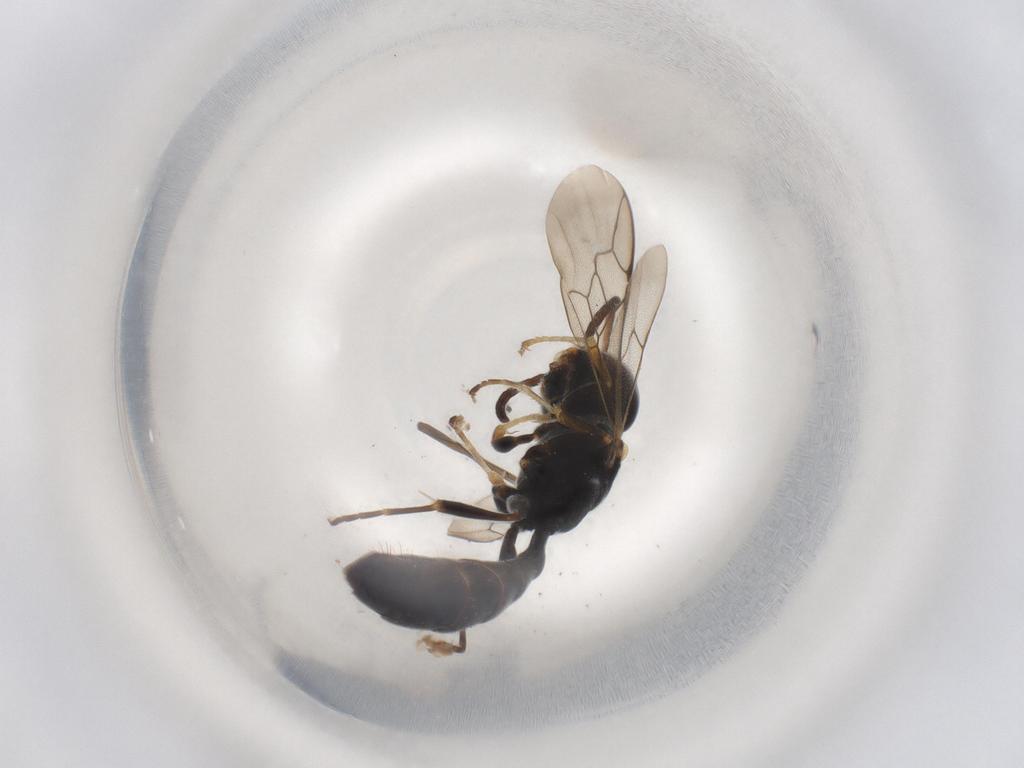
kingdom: Animalia
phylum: Arthropoda
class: Insecta
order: Hymenoptera
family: Crabronidae
